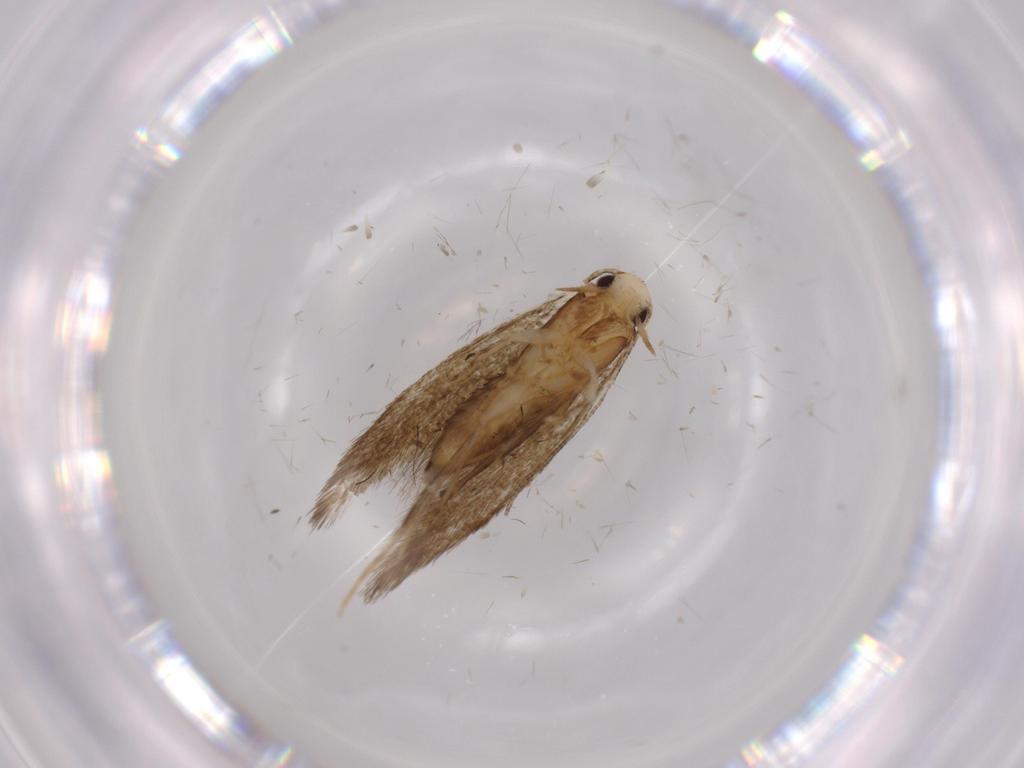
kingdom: Animalia
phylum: Arthropoda
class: Insecta
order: Lepidoptera
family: Tineidae
